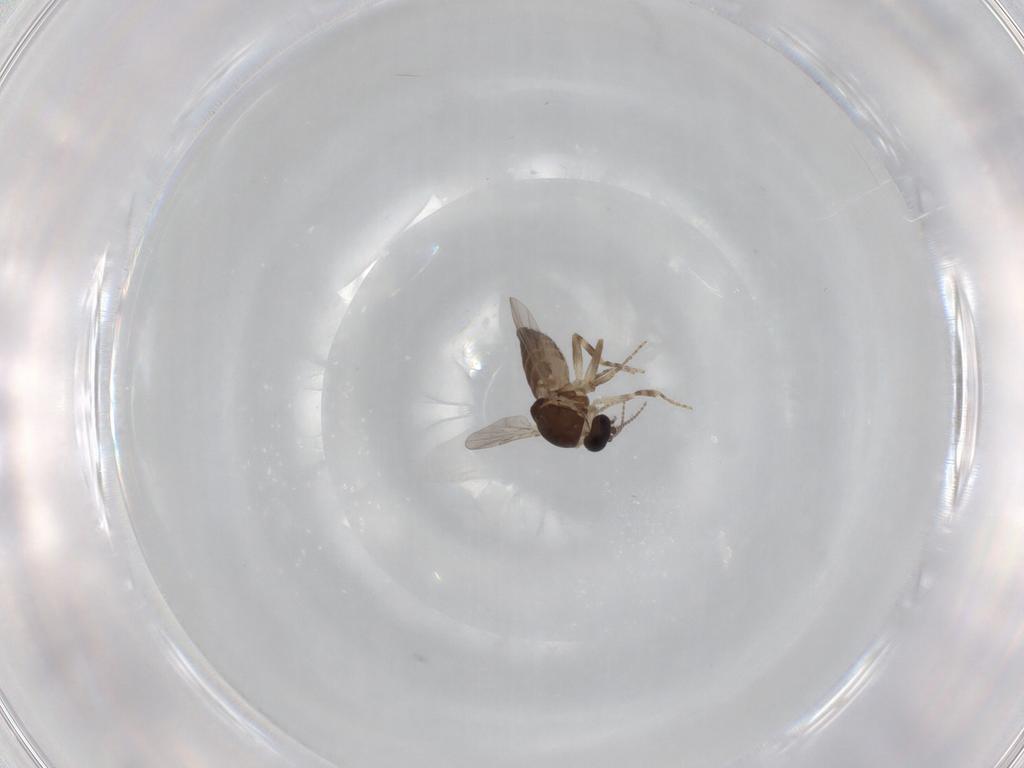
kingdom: Animalia
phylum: Arthropoda
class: Insecta
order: Diptera
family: Ceratopogonidae
